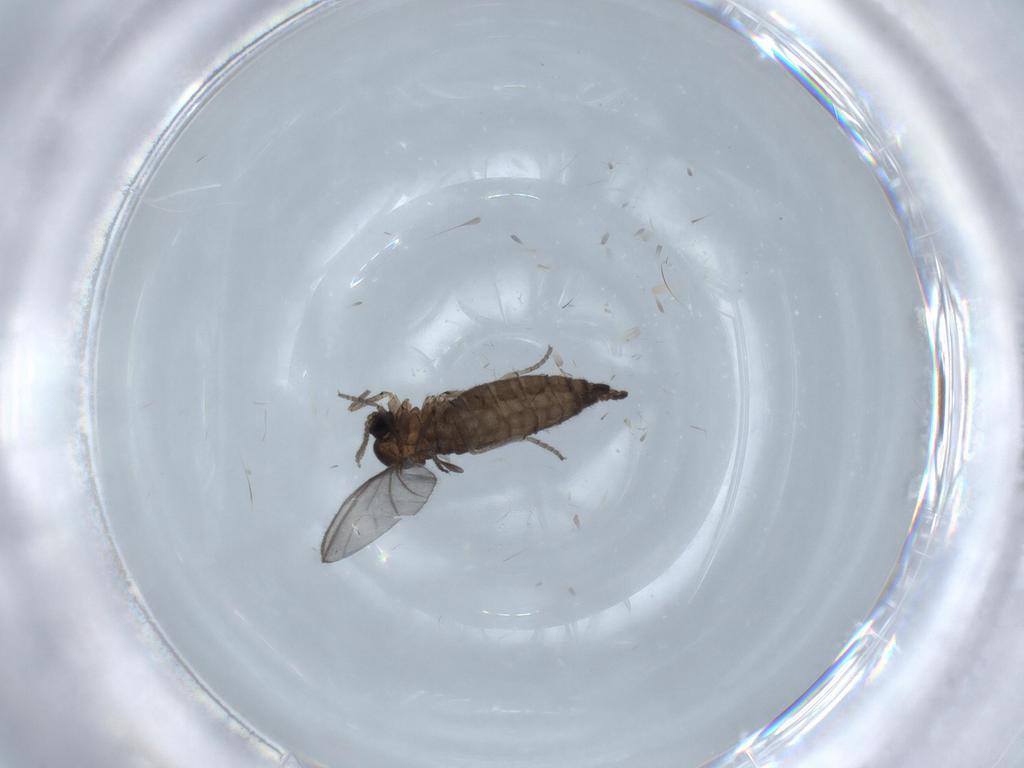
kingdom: Animalia
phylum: Arthropoda
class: Insecta
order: Diptera
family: Sciaridae
